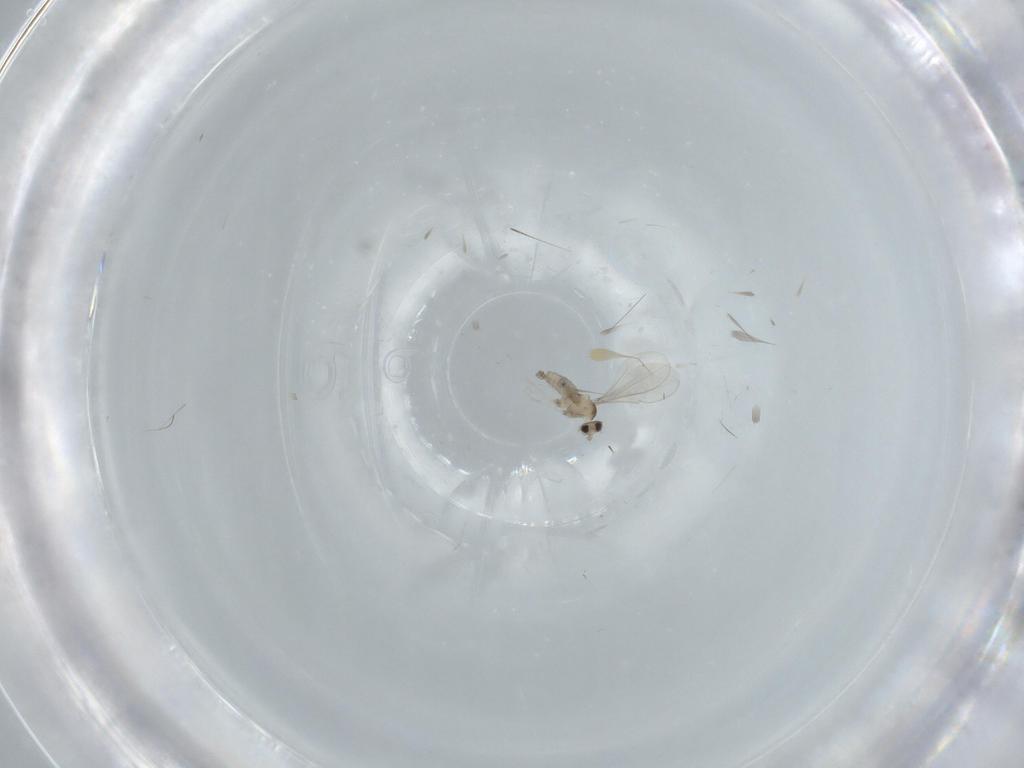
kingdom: Animalia
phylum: Arthropoda
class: Insecta
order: Diptera
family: Cecidomyiidae
